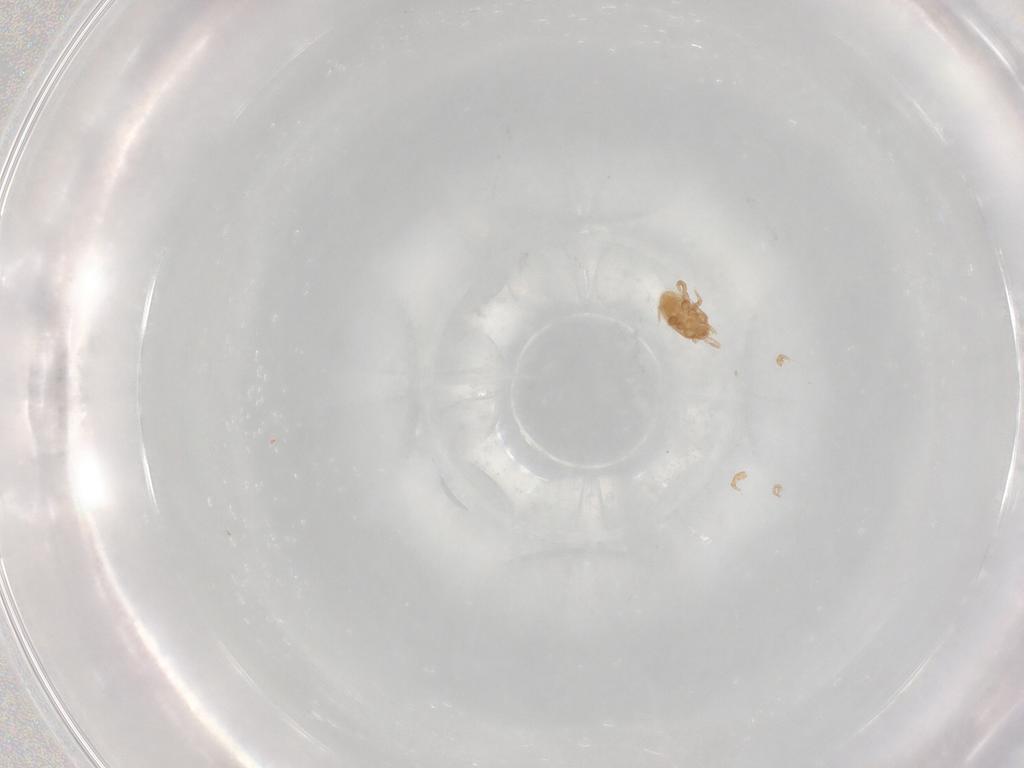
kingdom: Animalia
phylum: Arthropoda
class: Arachnida
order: Mesostigmata
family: Macrochelidae
